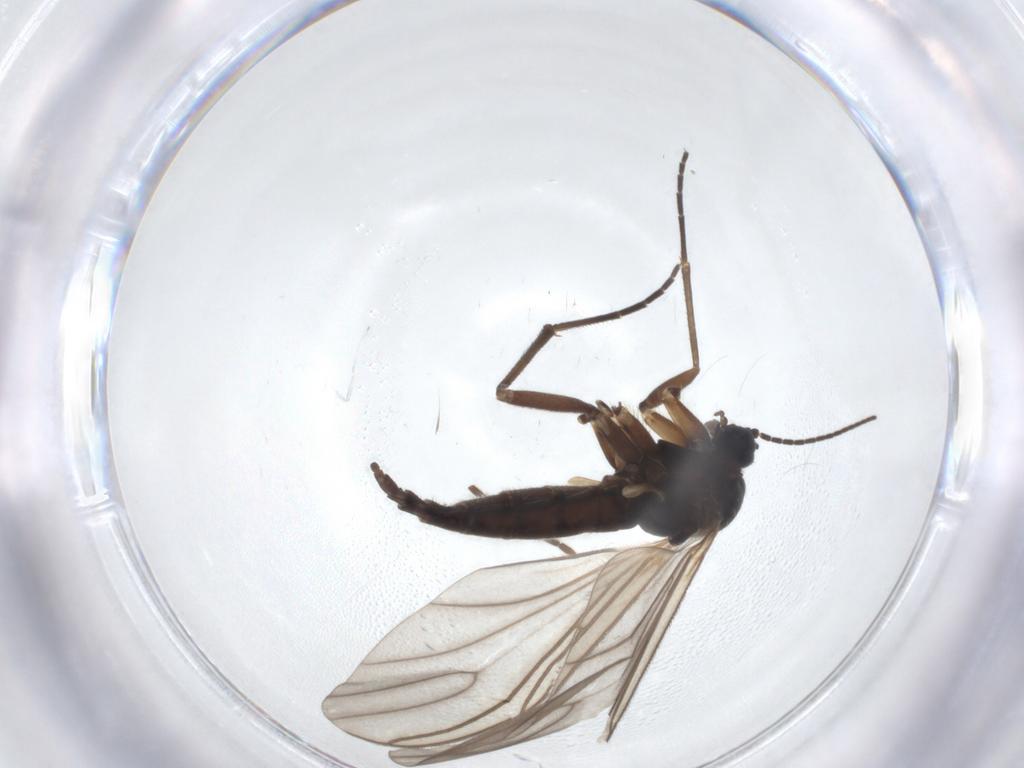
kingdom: Animalia
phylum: Arthropoda
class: Insecta
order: Diptera
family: Sciaridae
